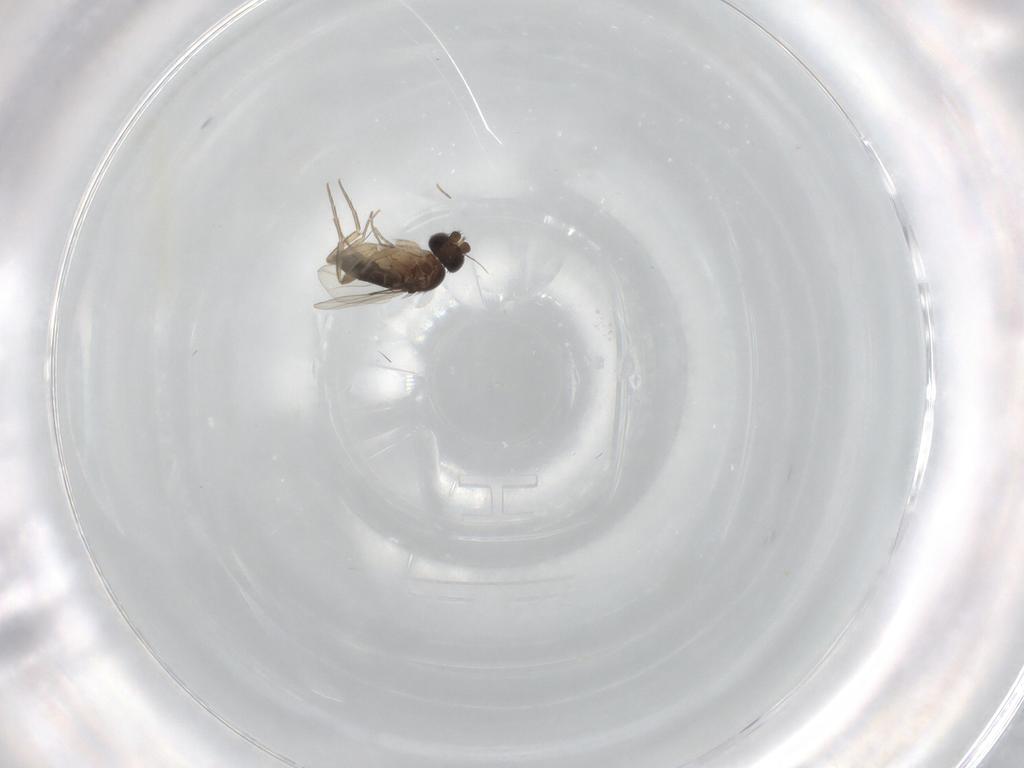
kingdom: Animalia
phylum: Arthropoda
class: Insecta
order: Diptera
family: Phoridae
